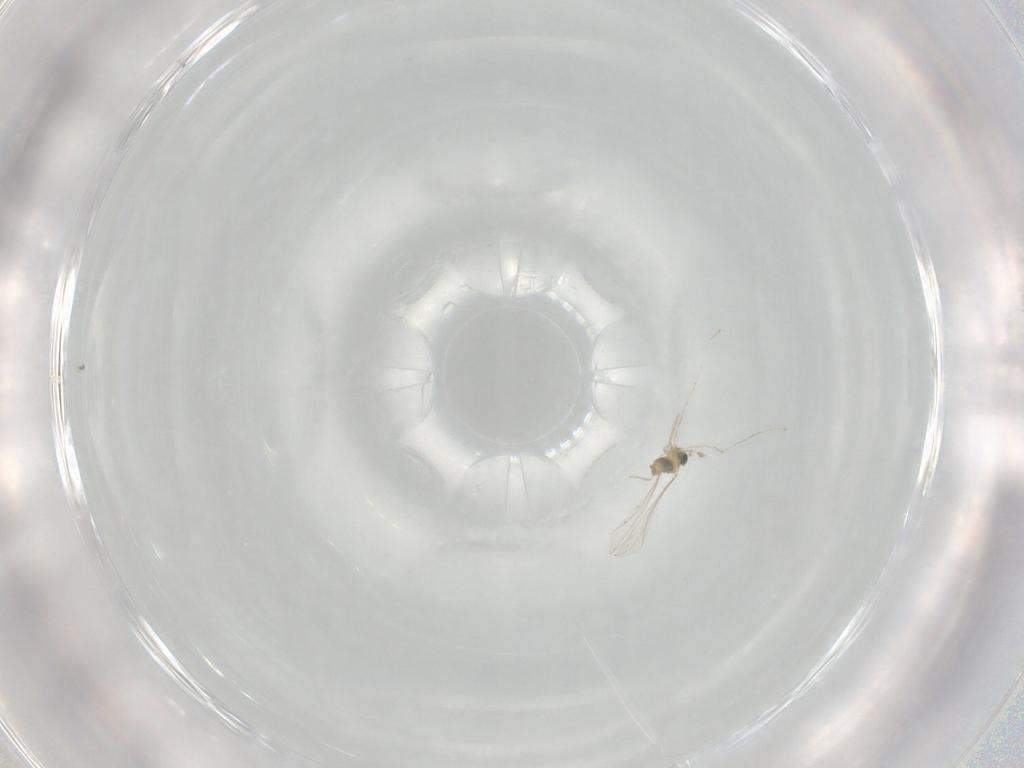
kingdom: Animalia
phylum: Arthropoda
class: Insecta
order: Diptera
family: Cecidomyiidae
